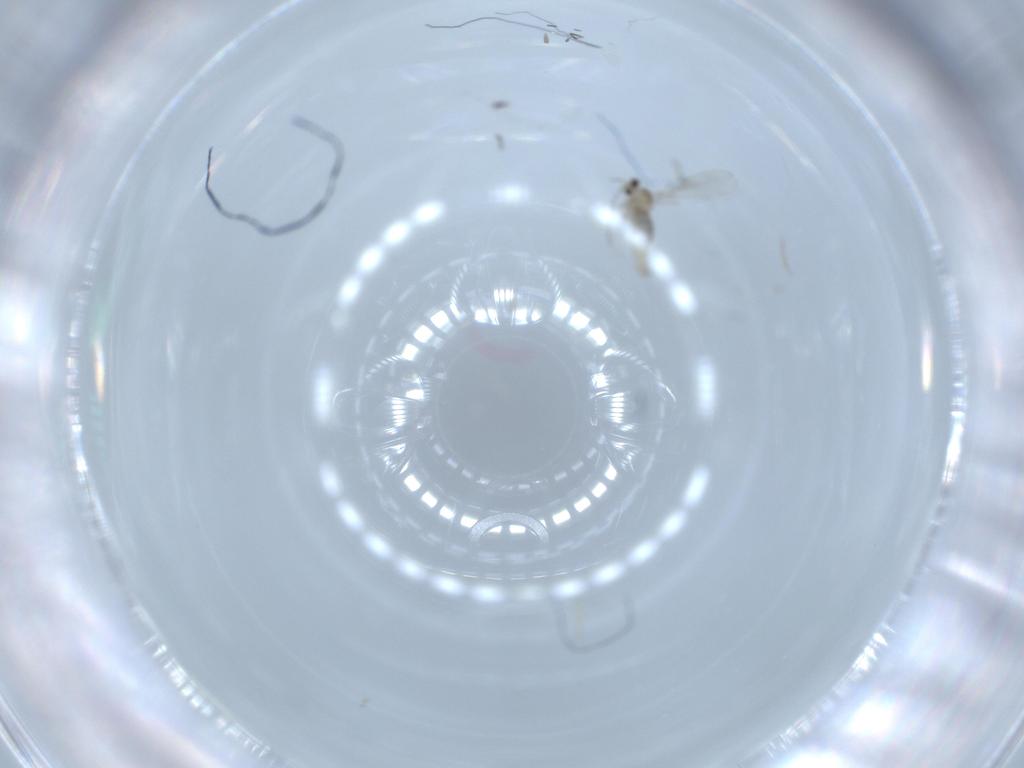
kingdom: Animalia
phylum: Arthropoda
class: Insecta
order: Diptera
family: Cecidomyiidae
